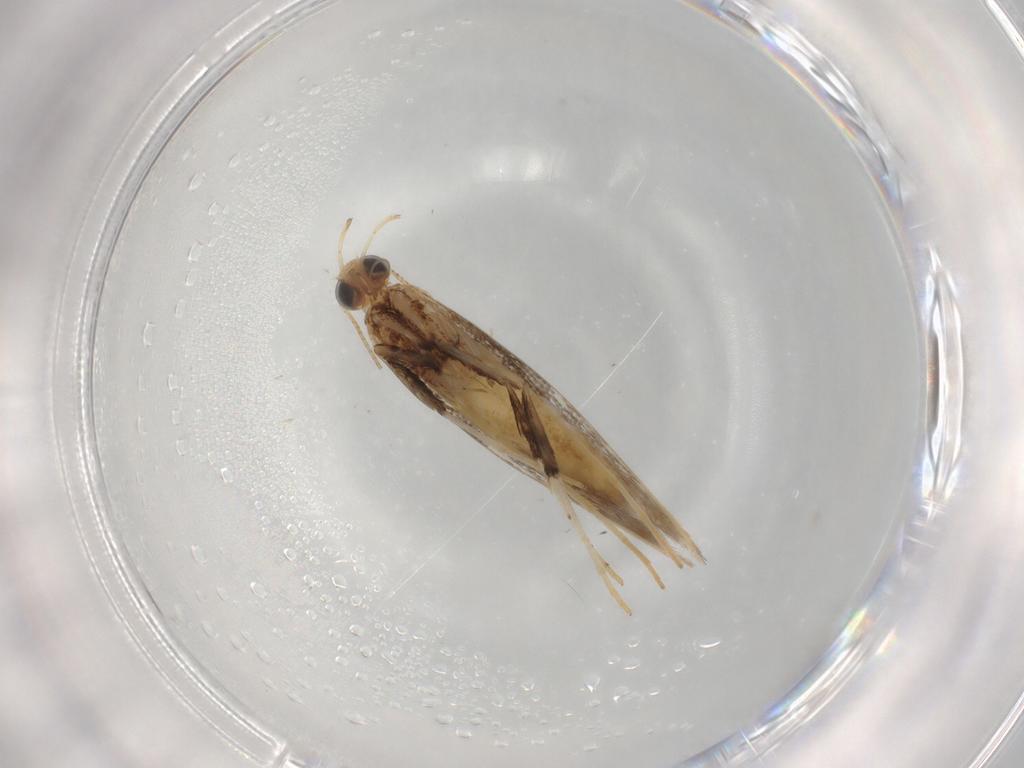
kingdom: Animalia
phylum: Arthropoda
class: Insecta
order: Lepidoptera
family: Gracillariidae
